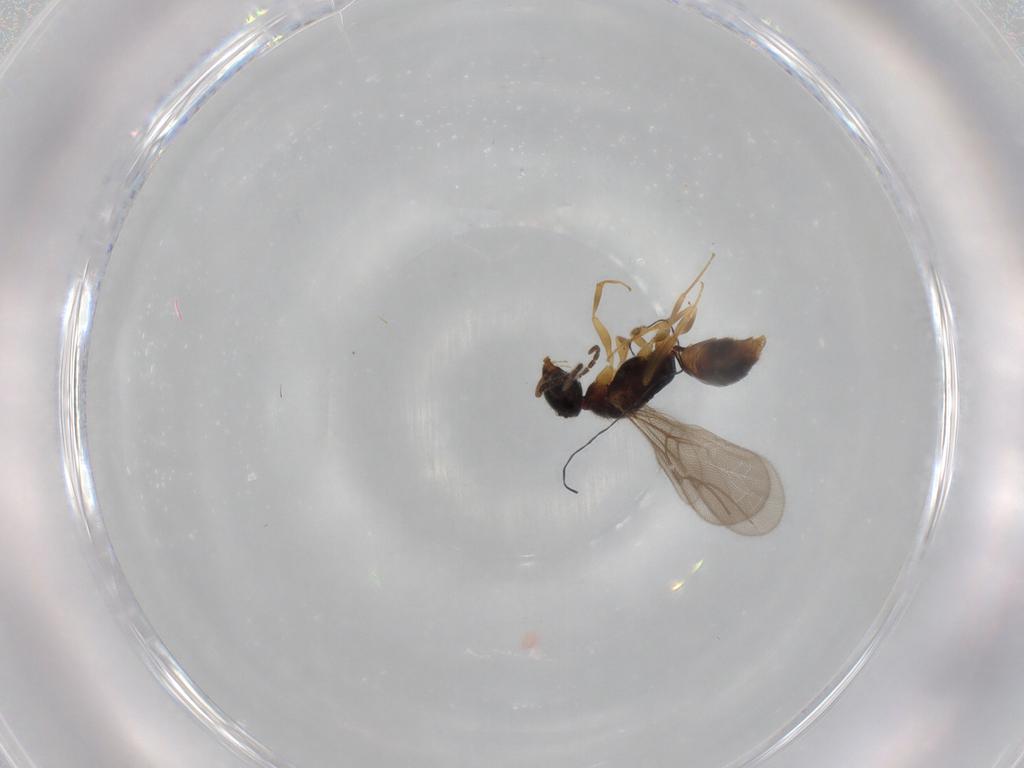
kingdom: Animalia
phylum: Arthropoda
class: Insecta
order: Hymenoptera
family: Bethylidae
